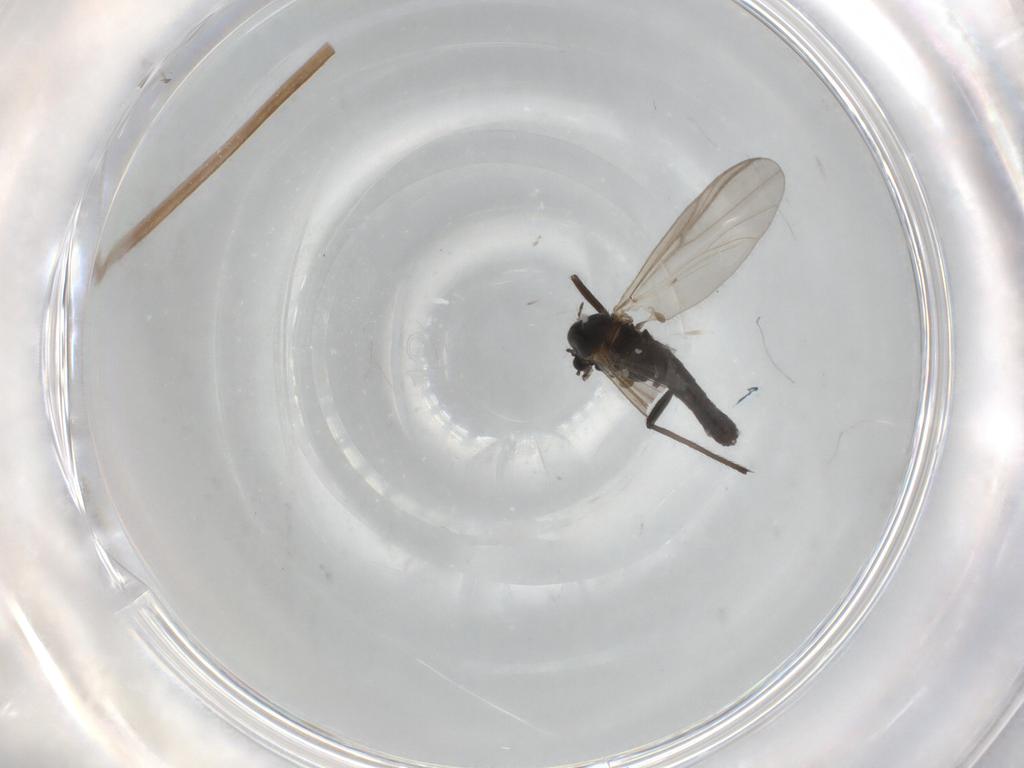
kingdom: Animalia
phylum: Arthropoda
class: Insecta
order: Diptera
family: Chironomidae
